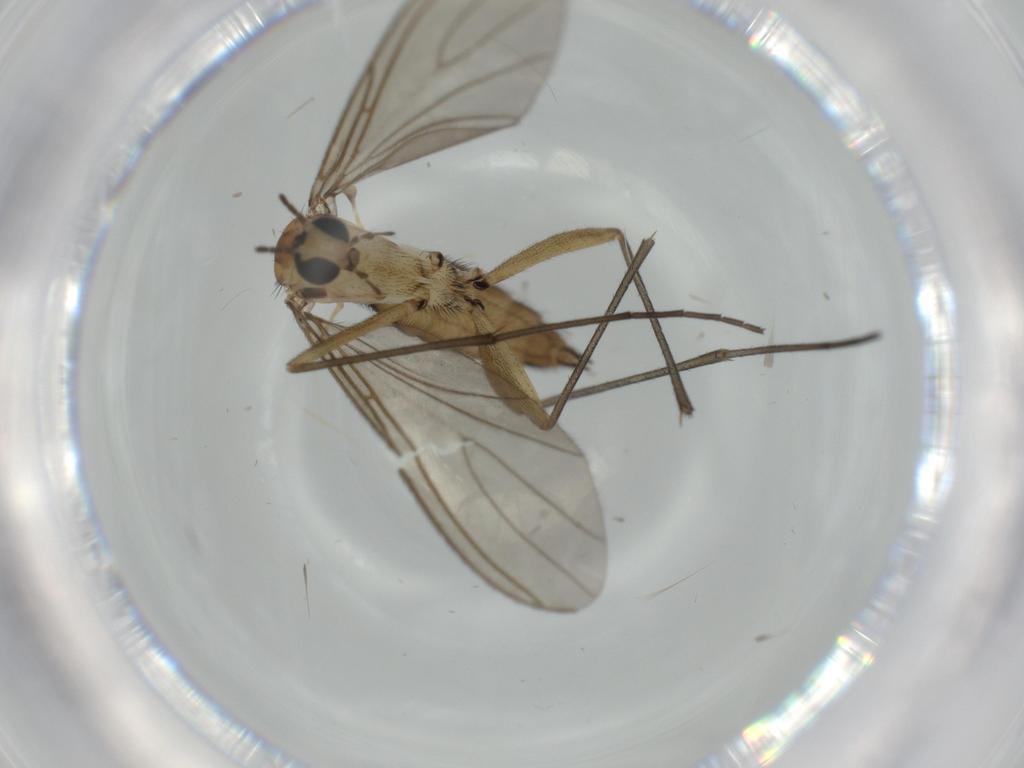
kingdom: Animalia
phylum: Arthropoda
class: Insecta
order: Diptera
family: Sciaridae
